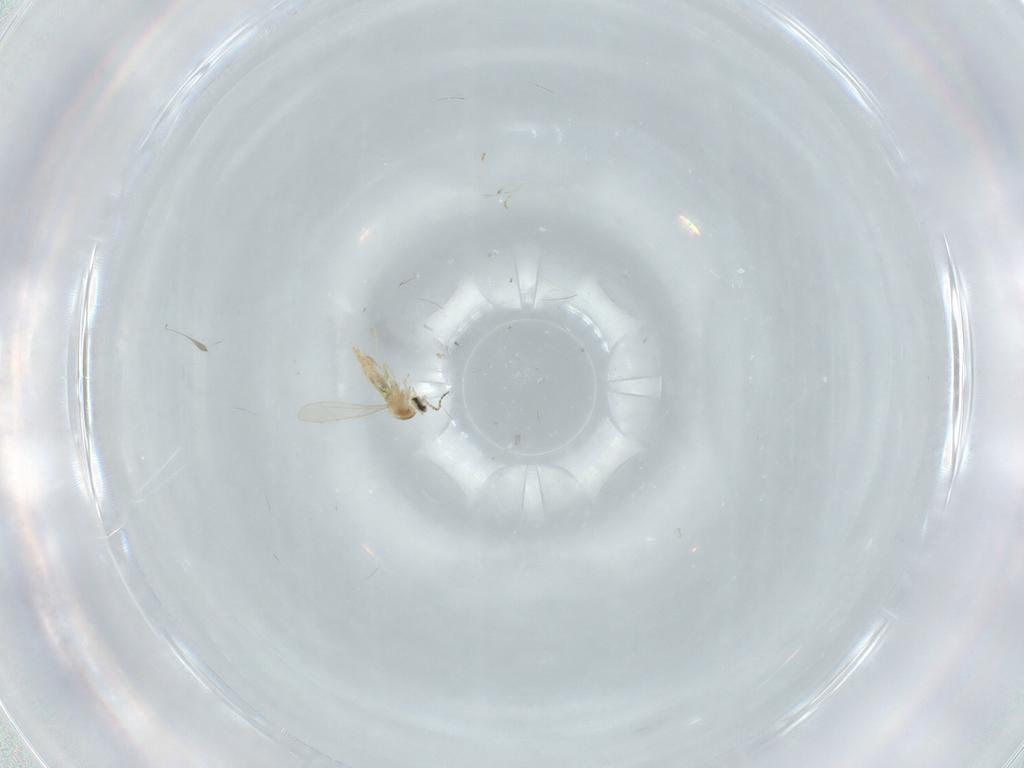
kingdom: Animalia
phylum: Arthropoda
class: Insecta
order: Diptera
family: Cecidomyiidae
